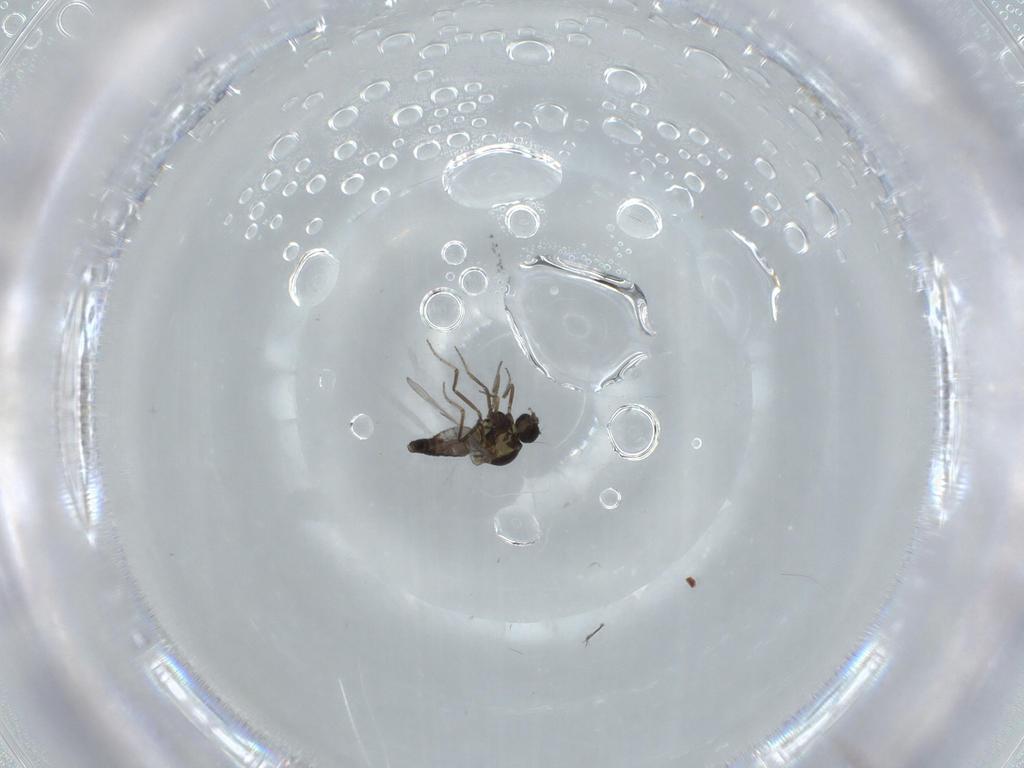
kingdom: Animalia
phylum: Arthropoda
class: Insecta
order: Diptera
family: Ceratopogonidae
